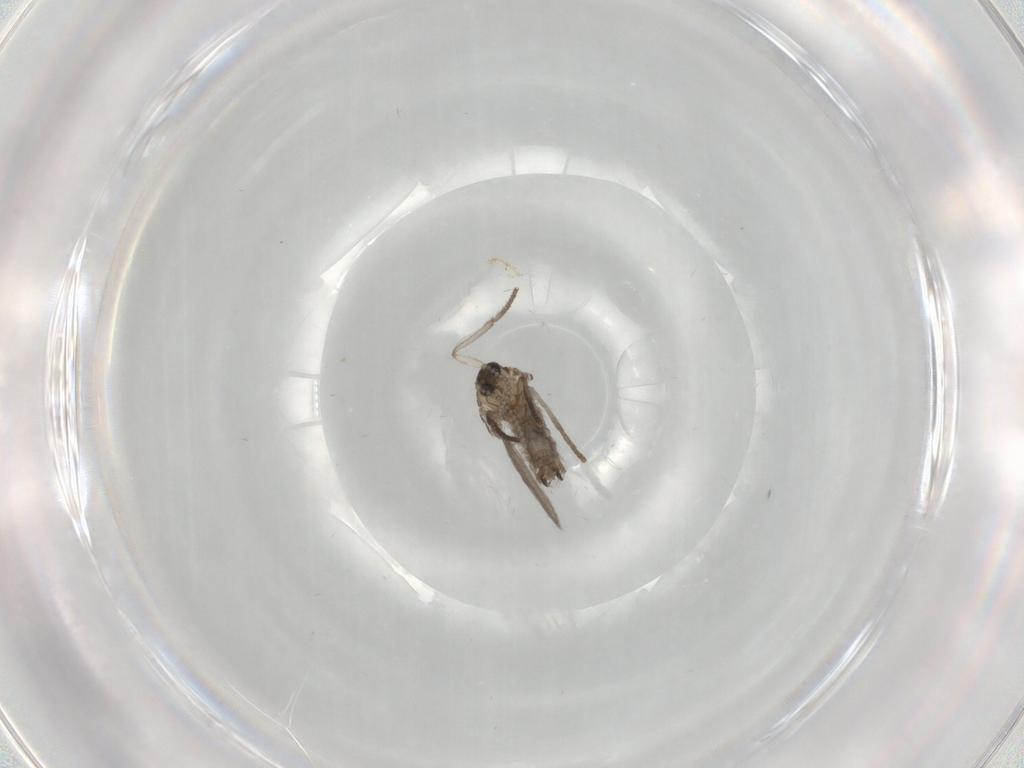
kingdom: Animalia
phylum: Arthropoda
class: Insecta
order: Diptera
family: Psychodidae
